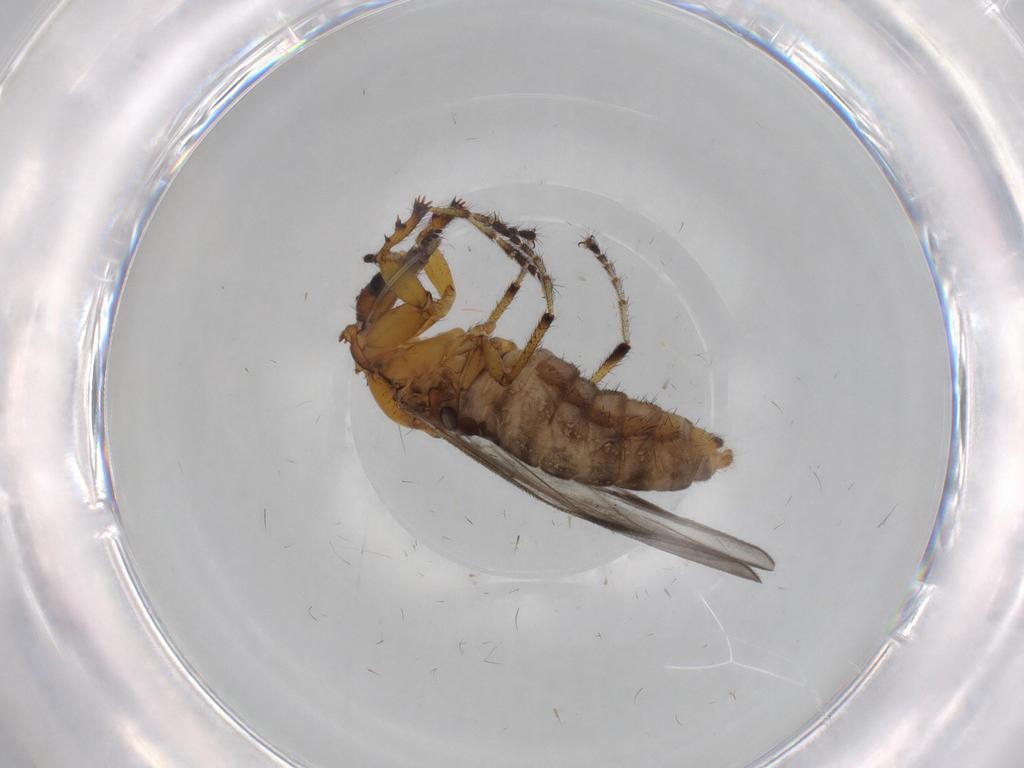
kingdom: Animalia
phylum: Arthropoda
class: Insecta
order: Diptera
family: Bibionidae
